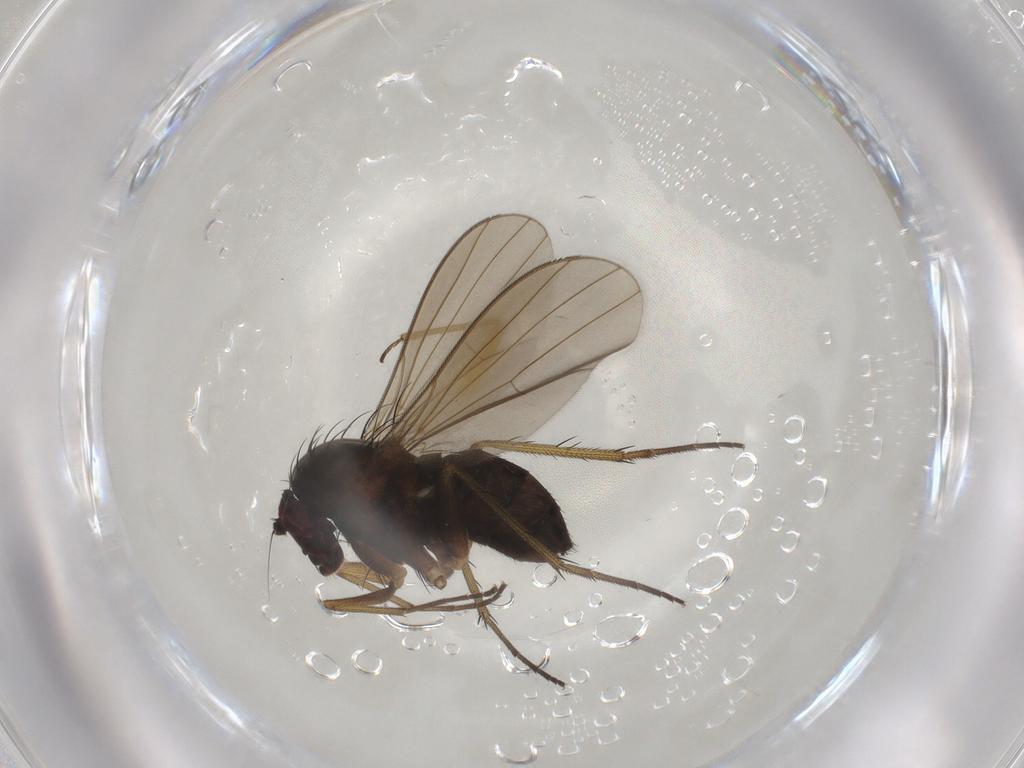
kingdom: Animalia
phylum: Arthropoda
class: Insecta
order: Diptera
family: Dolichopodidae
